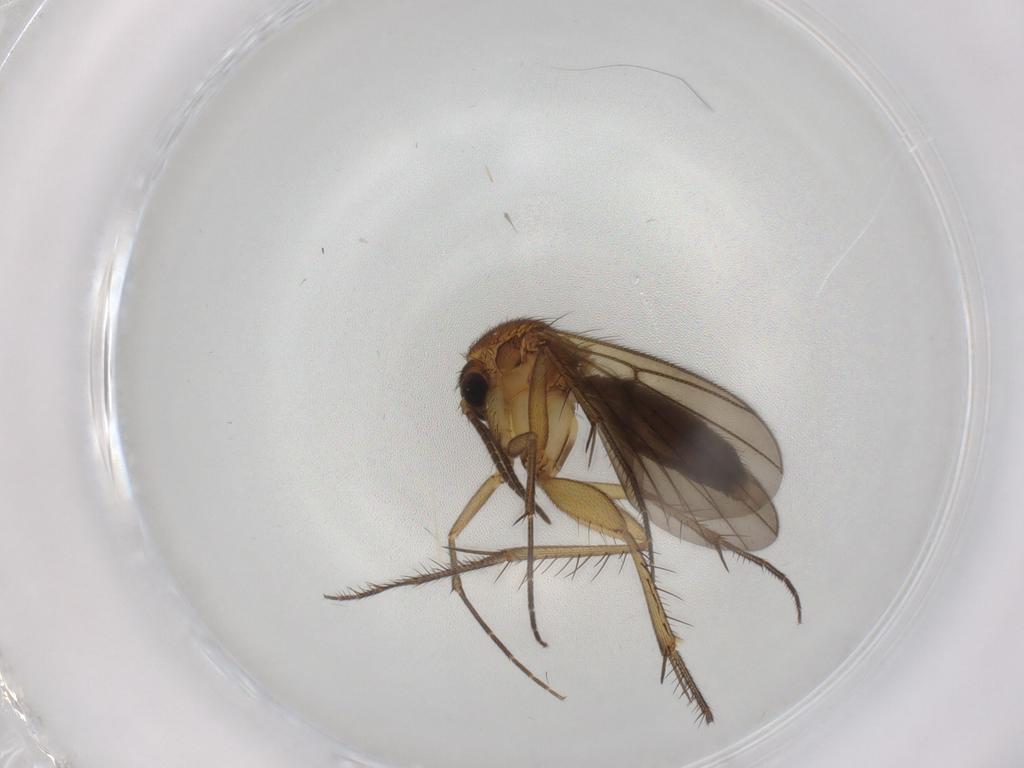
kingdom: Animalia
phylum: Arthropoda
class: Insecta
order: Diptera
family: Mycetophilidae
